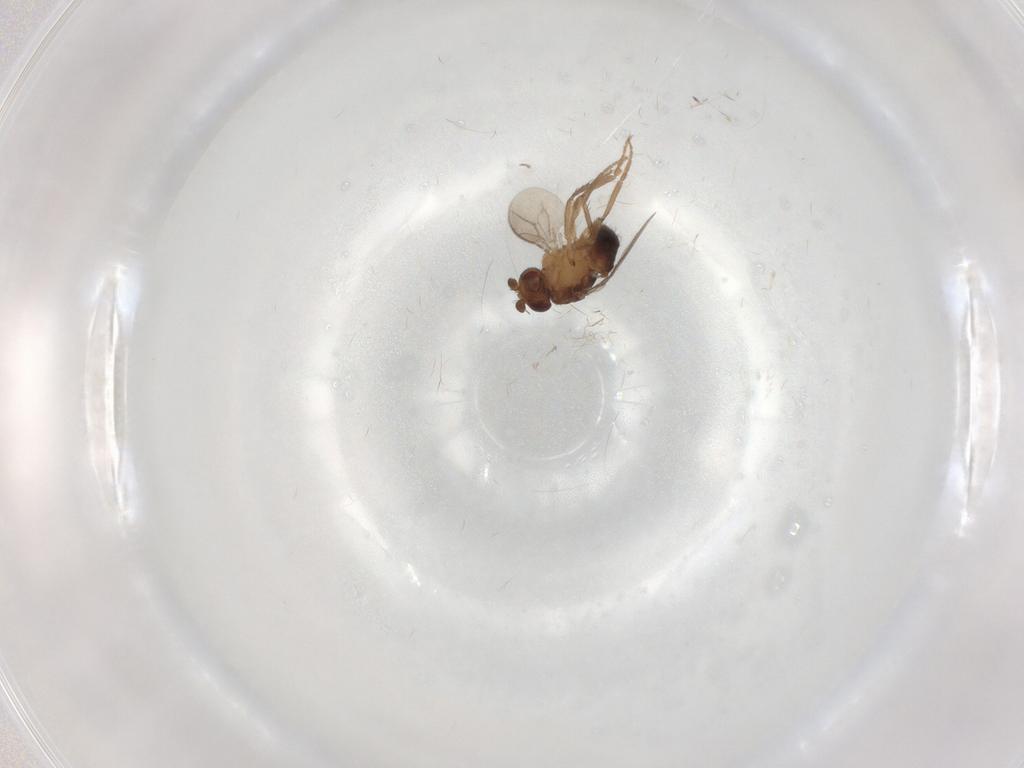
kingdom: Animalia
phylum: Arthropoda
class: Insecta
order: Diptera
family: Sphaeroceridae
